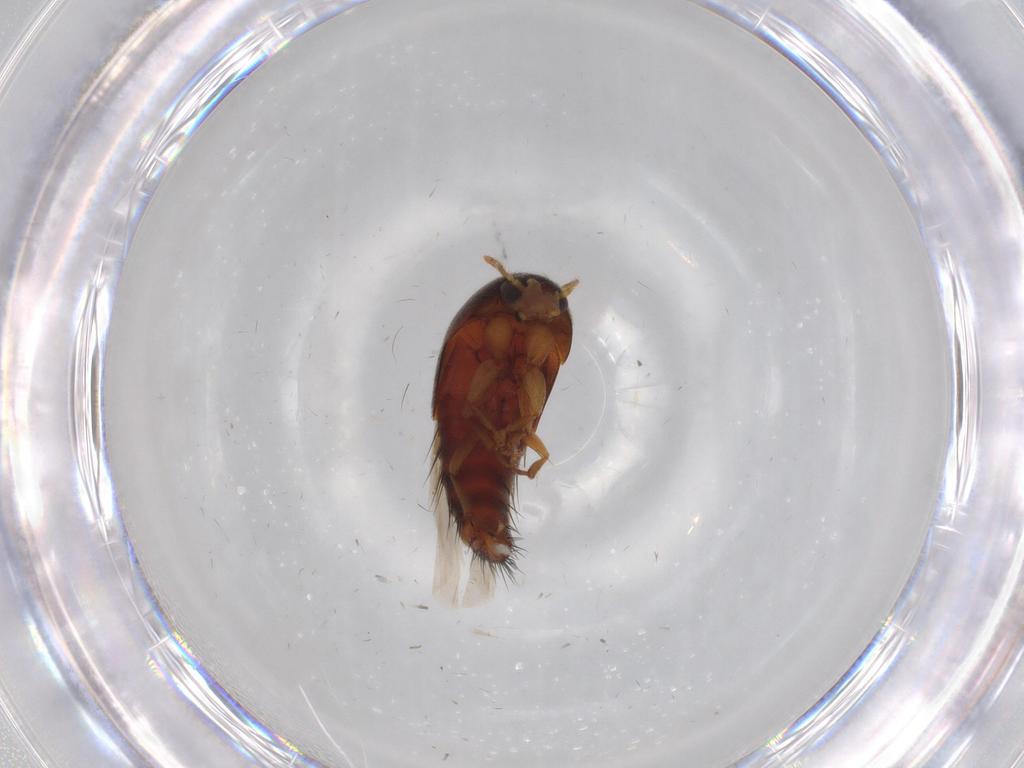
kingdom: Animalia
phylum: Arthropoda
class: Insecta
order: Coleoptera
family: Staphylinidae
